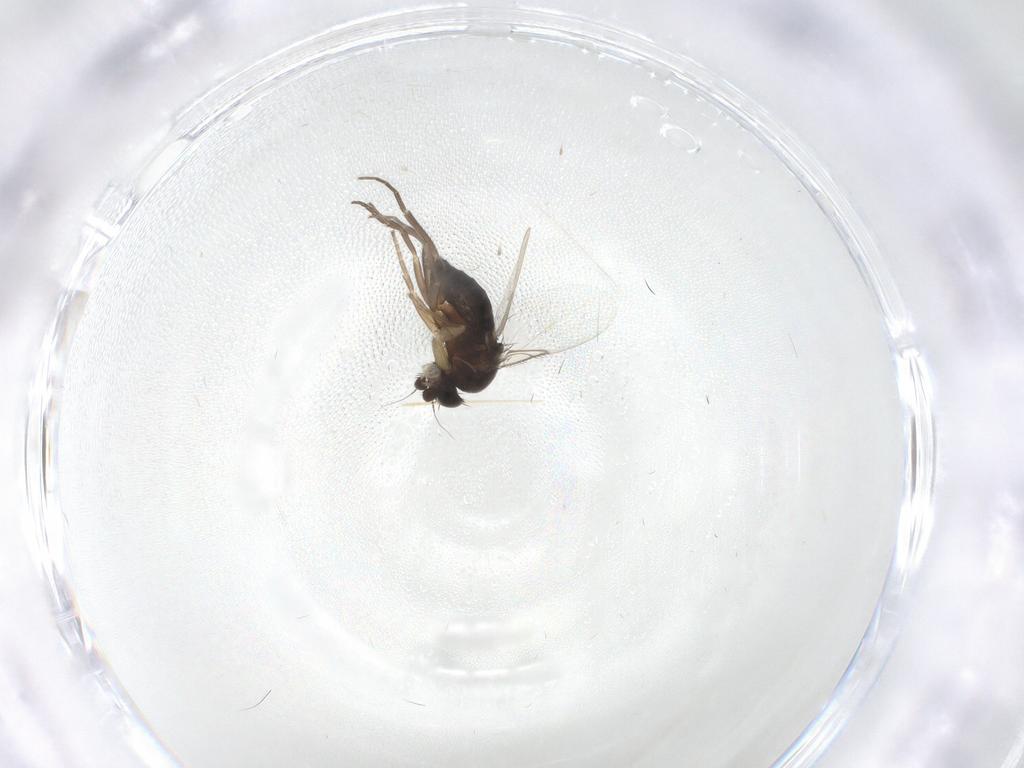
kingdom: Animalia
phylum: Arthropoda
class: Insecta
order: Diptera
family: Phoridae
